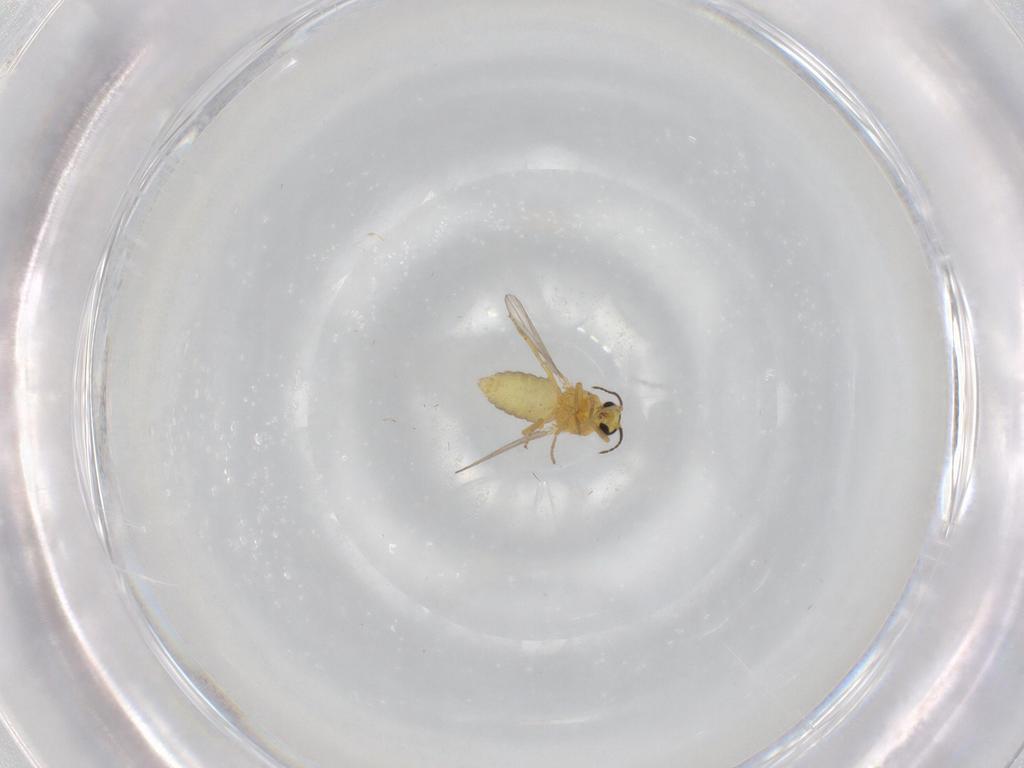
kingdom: Animalia
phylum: Arthropoda
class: Insecta
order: Diptera
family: Ceratopogonidae
